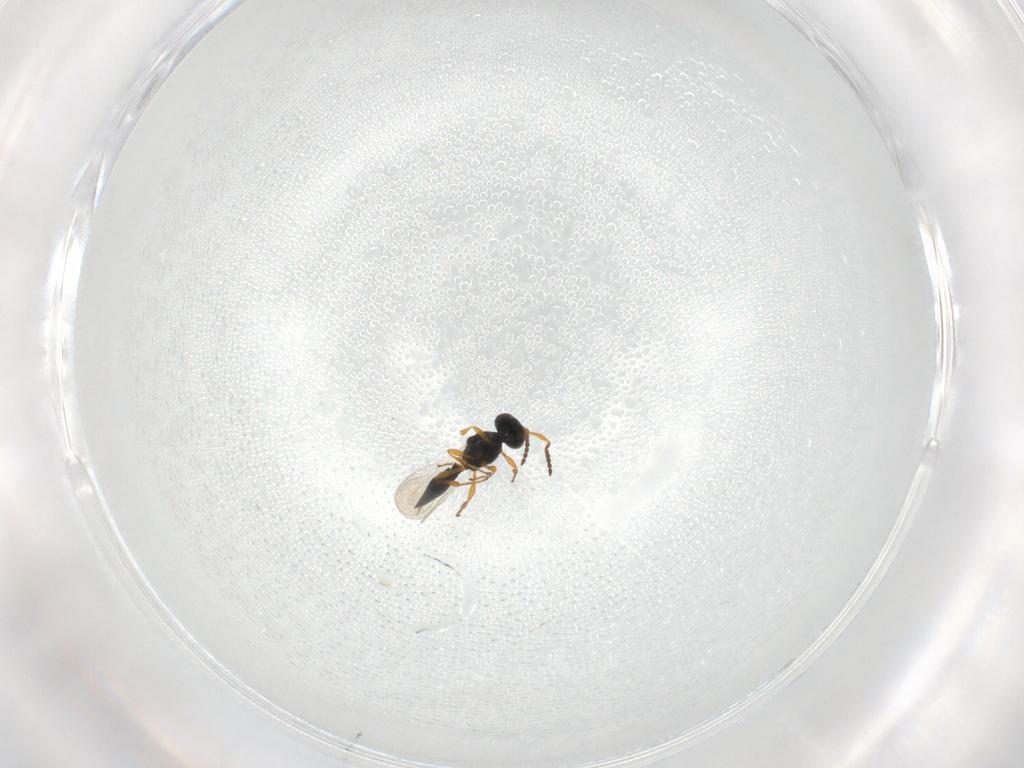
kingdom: Animalia
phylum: Arthropoda
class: Insecta
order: Hymenoptera
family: Platygastridae
